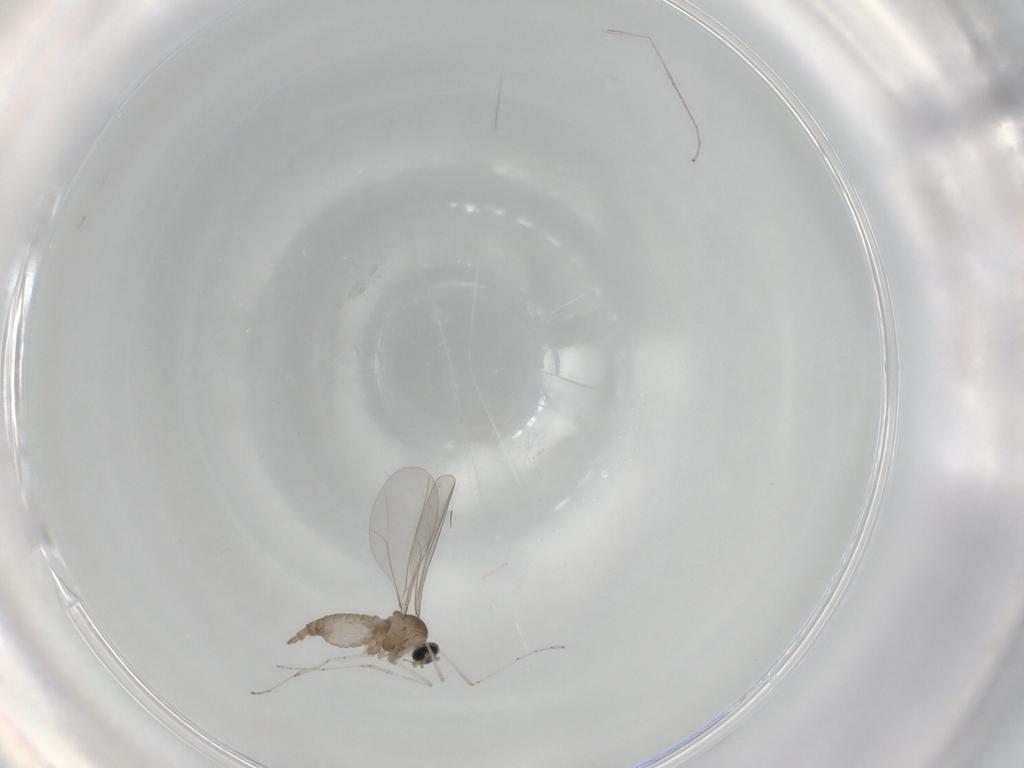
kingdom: Animalia
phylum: Arthropoda
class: Insecta
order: Diptera
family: Cecidomyiidae
